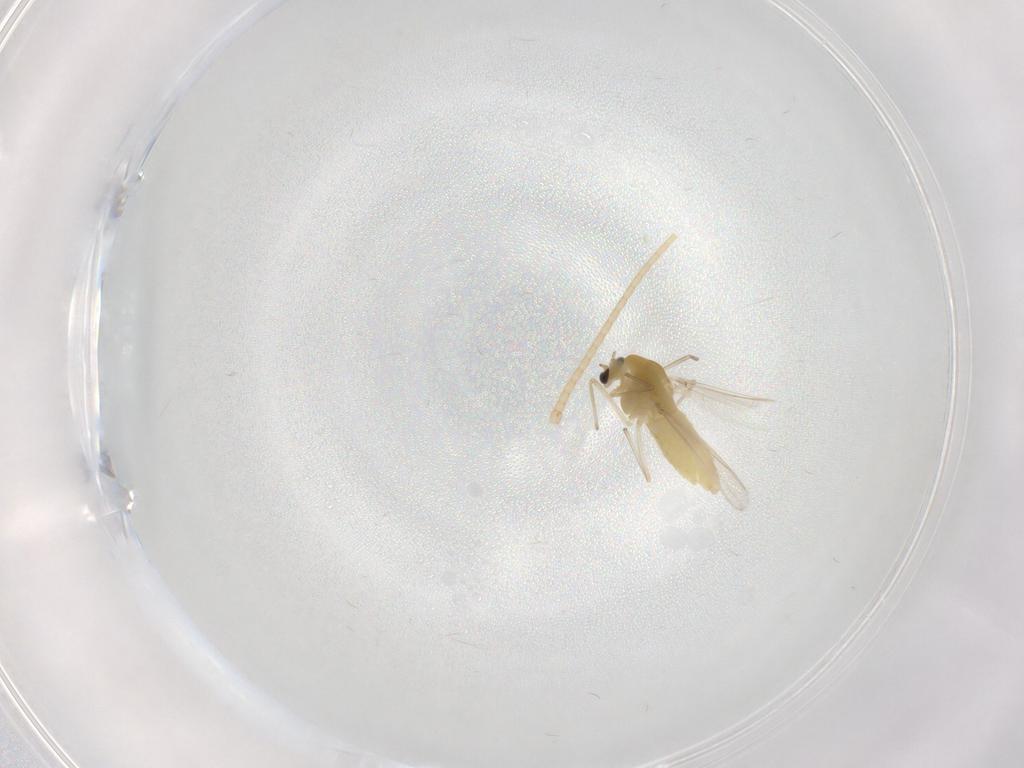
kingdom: Animalia
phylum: Arthropoda
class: Insecta
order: Diptera
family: Chironomidae
